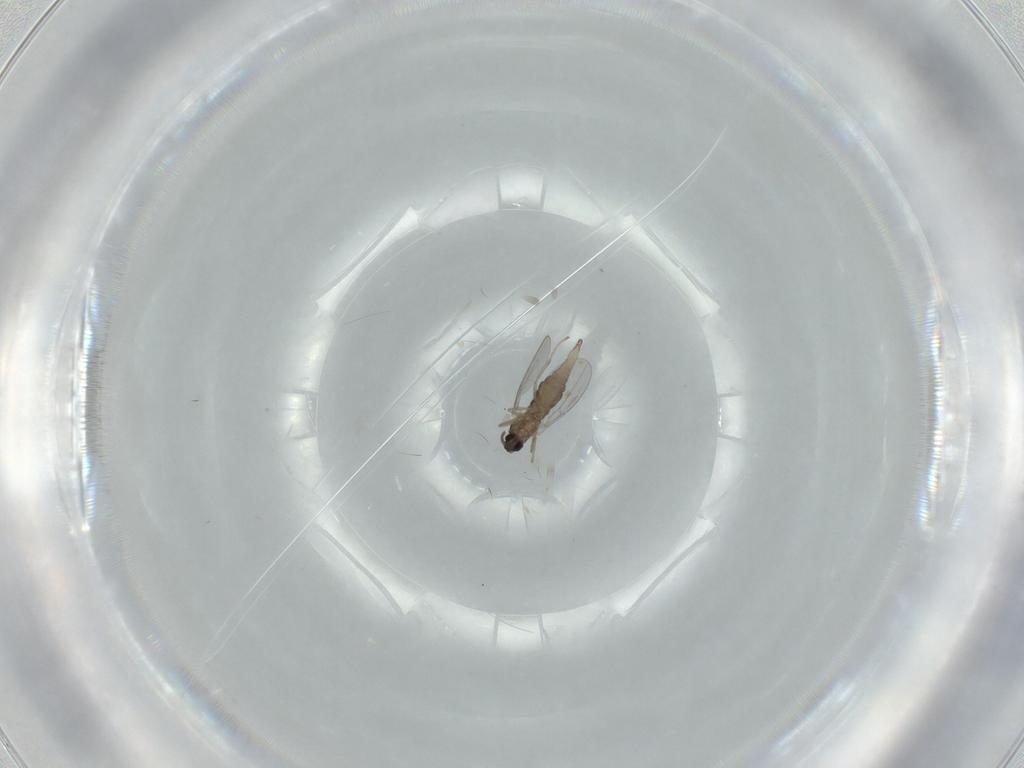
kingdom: Animalia
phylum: Arthropoda
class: Insecta
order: Diptera
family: Cecidomyiidae
